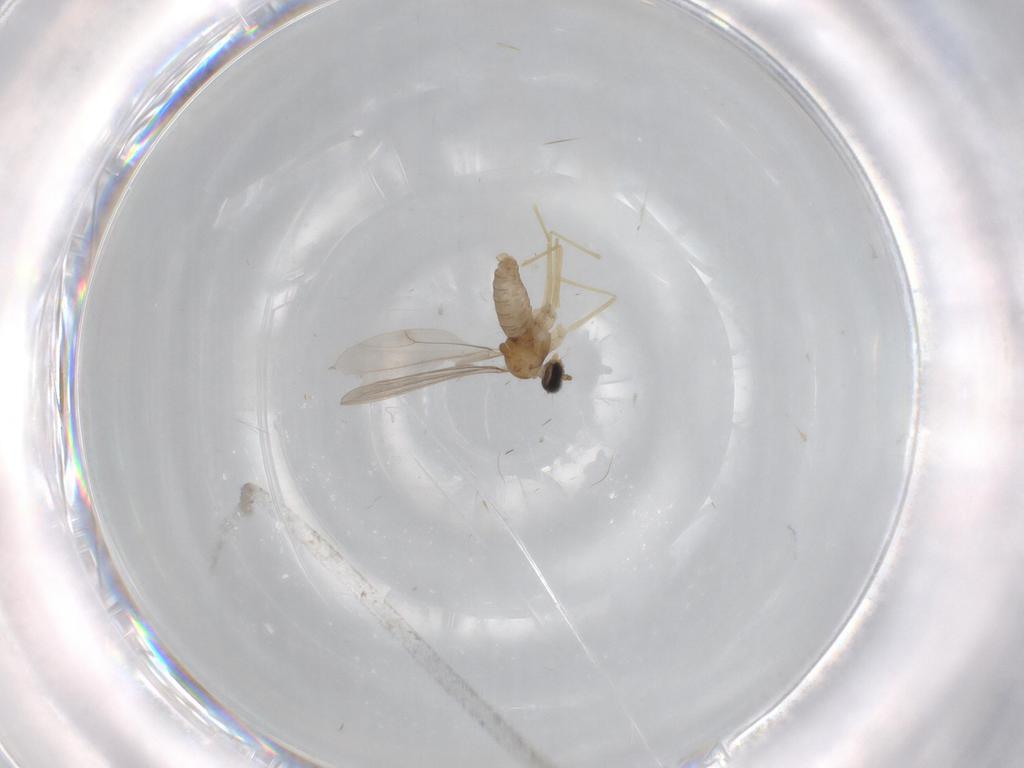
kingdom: Animalia
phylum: Arthropoda
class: Insecta
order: Diptera
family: Cecidomyiidae
